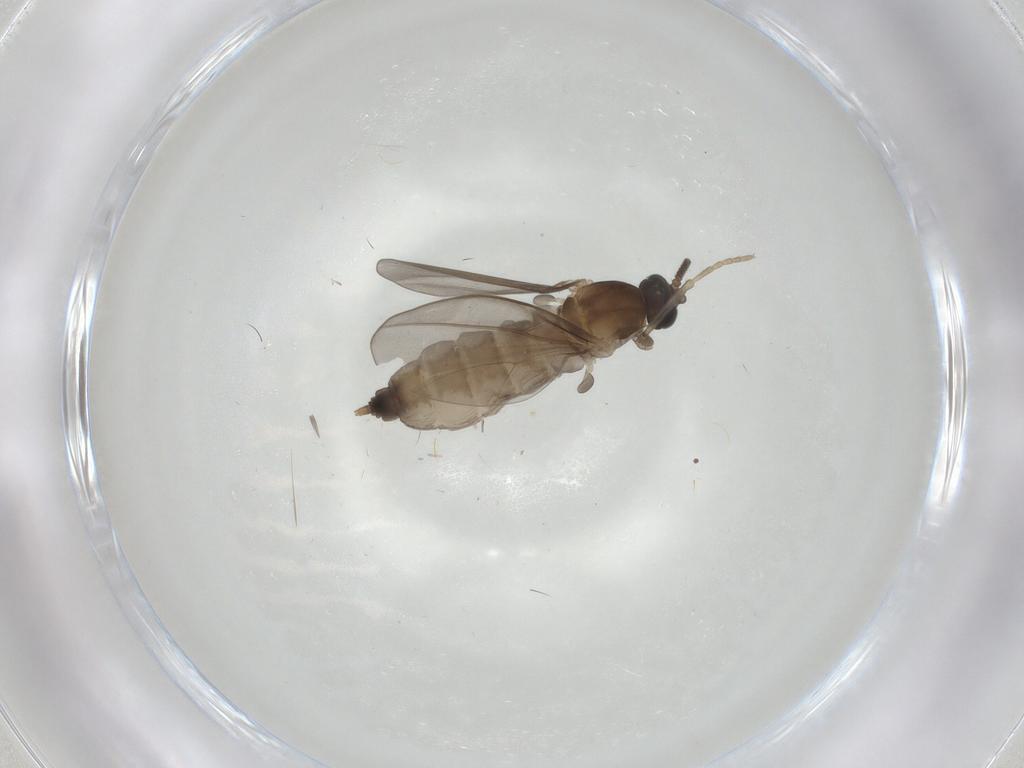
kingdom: Animalia
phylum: Arthropoda
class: Insecta
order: Diptera
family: Cecidomyiidae
